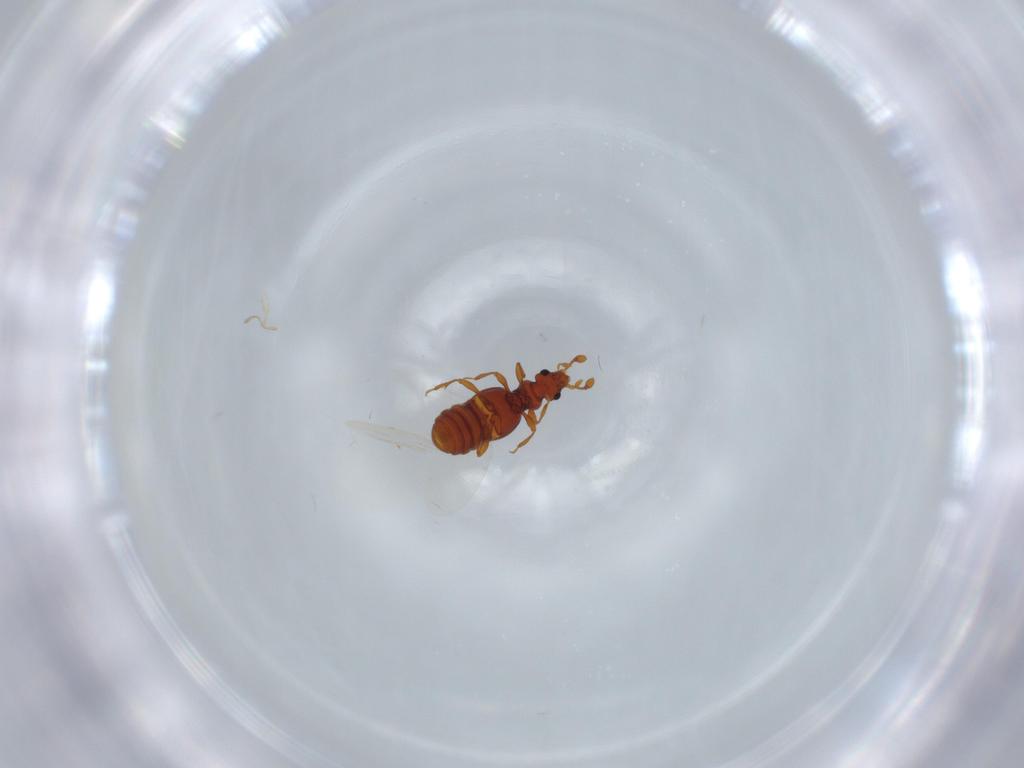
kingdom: Animalia
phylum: Arthropoda
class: Insecta
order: Coleoptera
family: Staphylinidae
